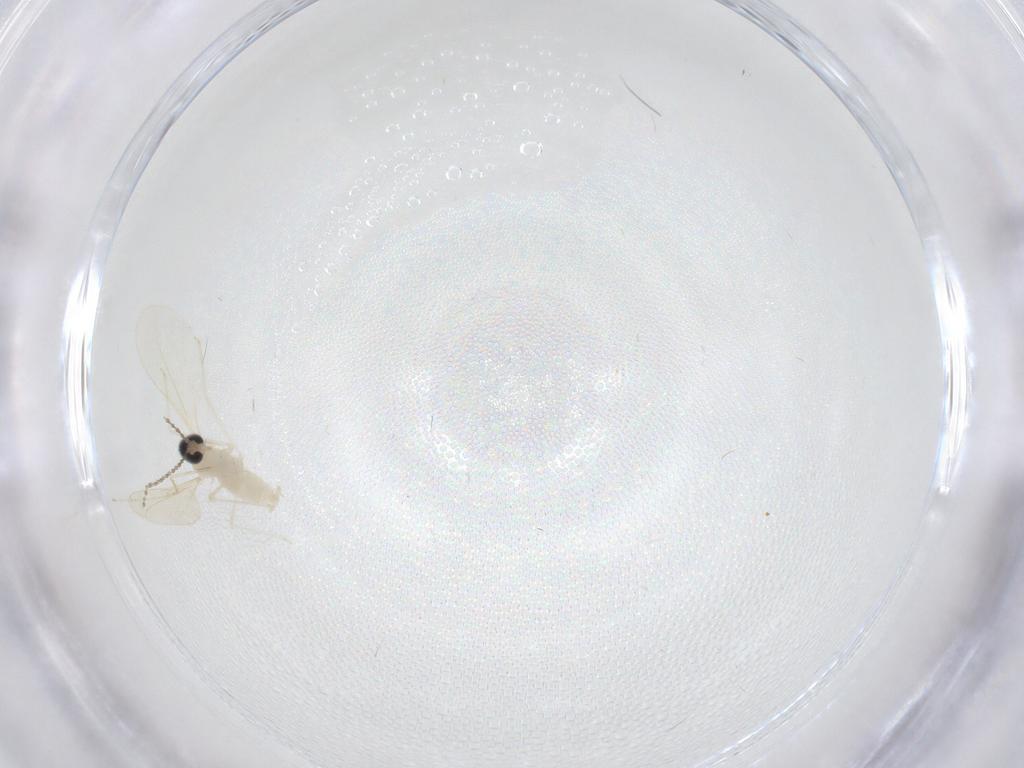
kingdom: Animalia
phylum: Arthropoda
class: Insecta
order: Diptera
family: Cecidomyiidae
